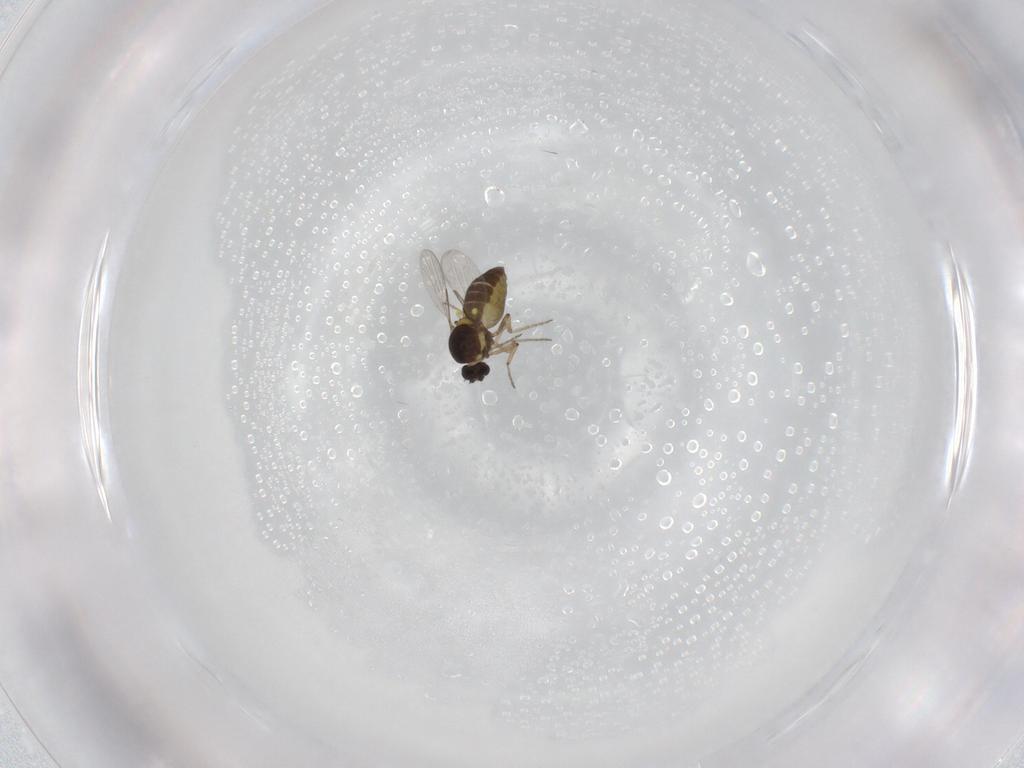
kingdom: Animalia
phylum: Arthropoda
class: Insecta
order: Diptera
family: Ceratopogonidae
